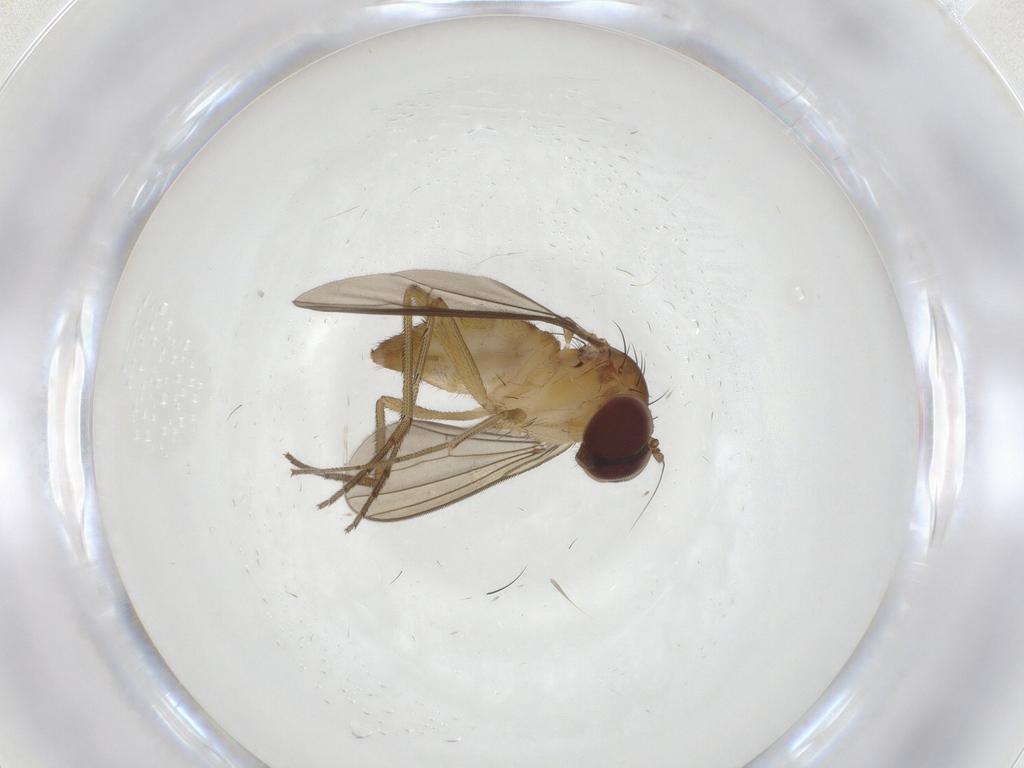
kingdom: Animalia
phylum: Arthropoda
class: Insecta
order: Diptera
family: Dolichopodidae
